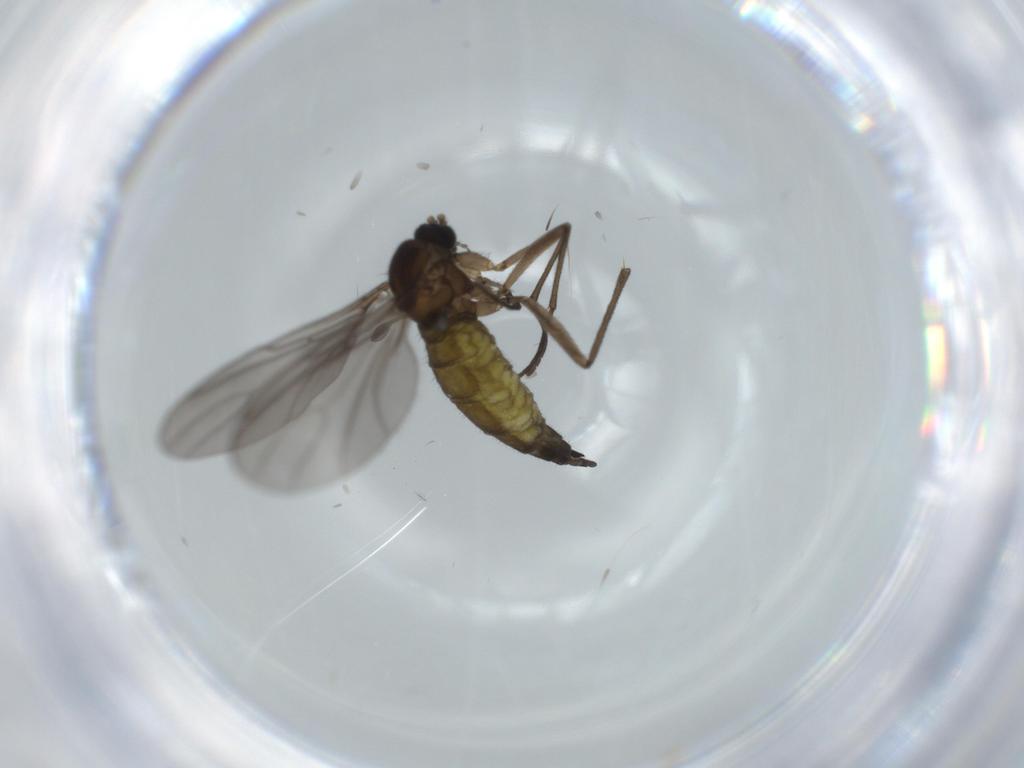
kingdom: Animalia
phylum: Arthropoda
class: Insecta
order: Diptera
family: Sciaridae
